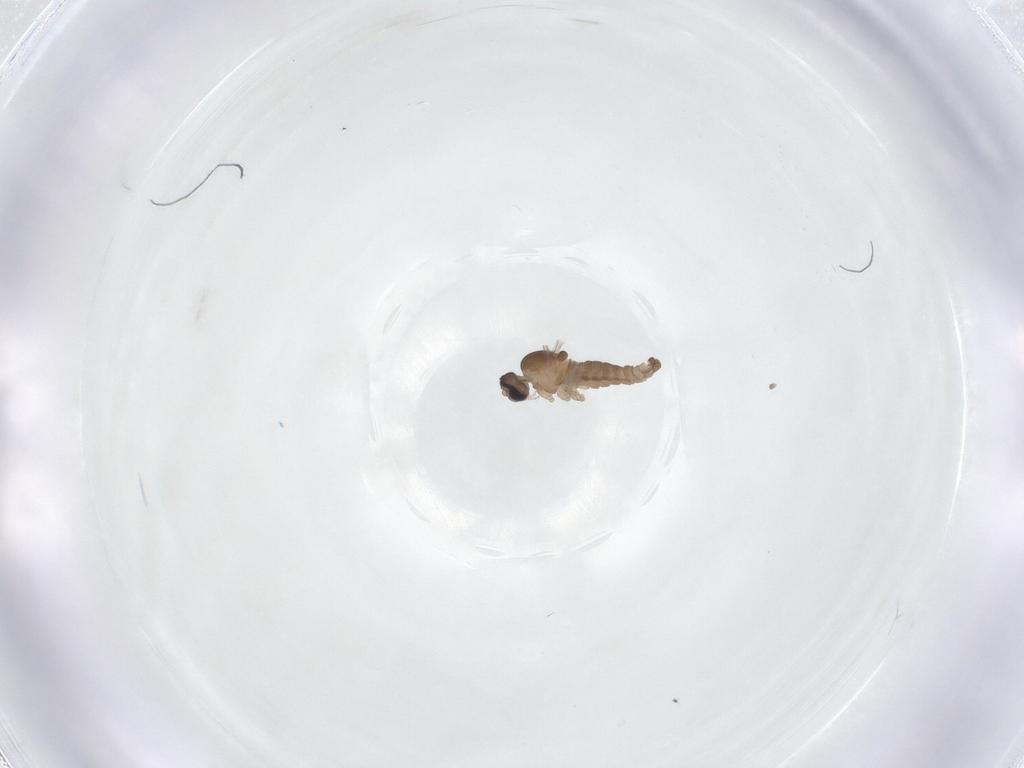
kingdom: Animalia
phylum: Arthropoda
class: Insecta
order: Diptera
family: Cecidomyiidae
